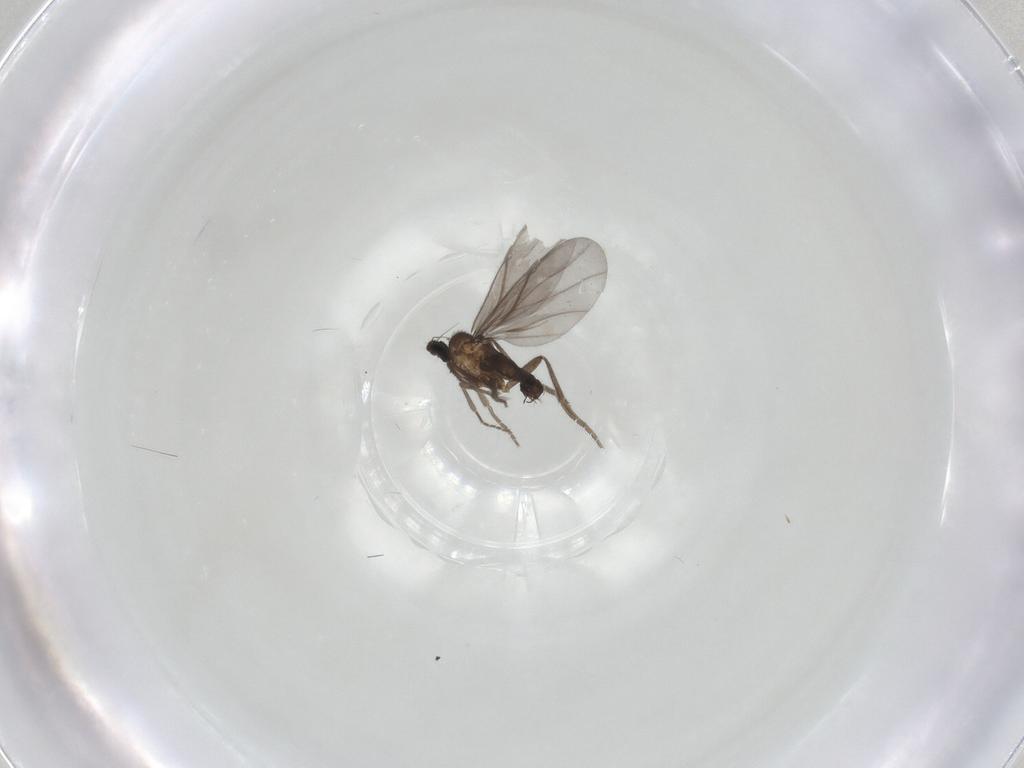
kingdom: Animalia
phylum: Arthropoda
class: Insecta
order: Diptera
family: Phoridae
